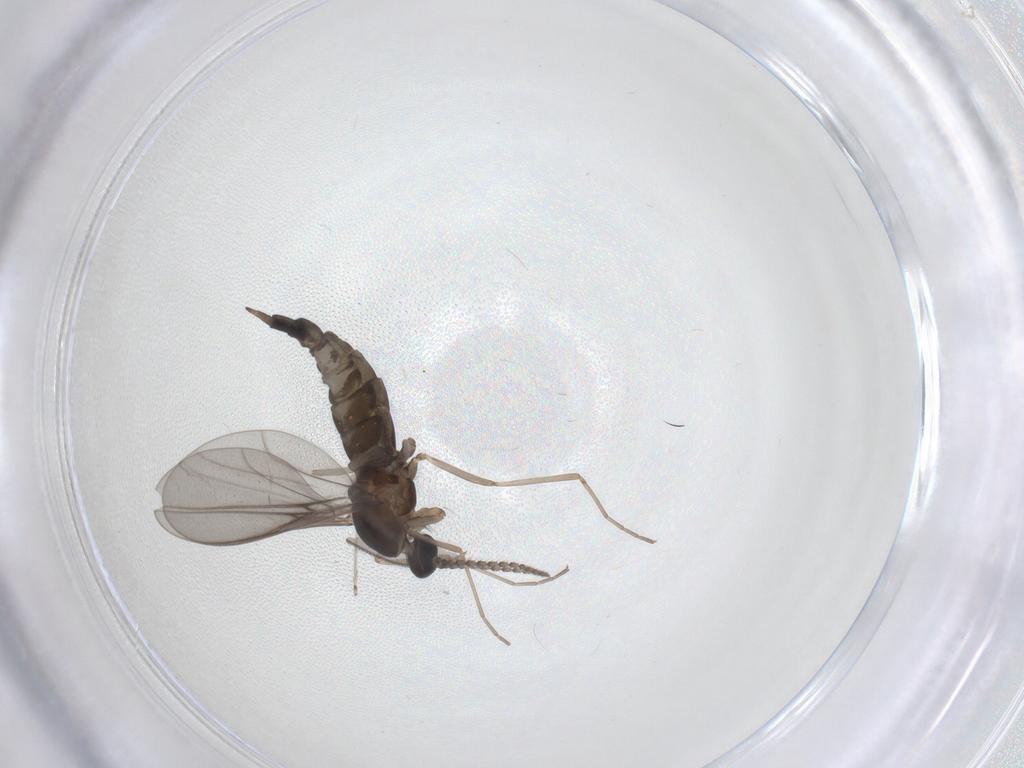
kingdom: Animalia
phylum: Arthropoda
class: Insecta
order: Diptera
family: Cecidomyiidae
